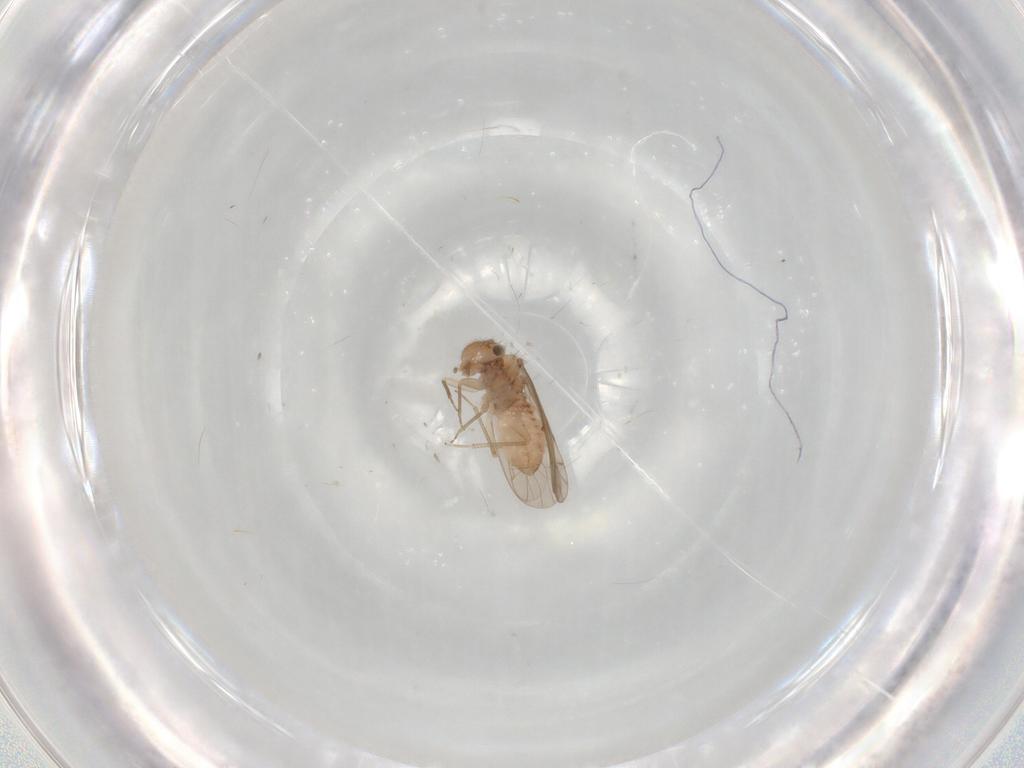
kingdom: Animalia
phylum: Arthropoda
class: Insecta
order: Psocodea
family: Ectopsocidae
